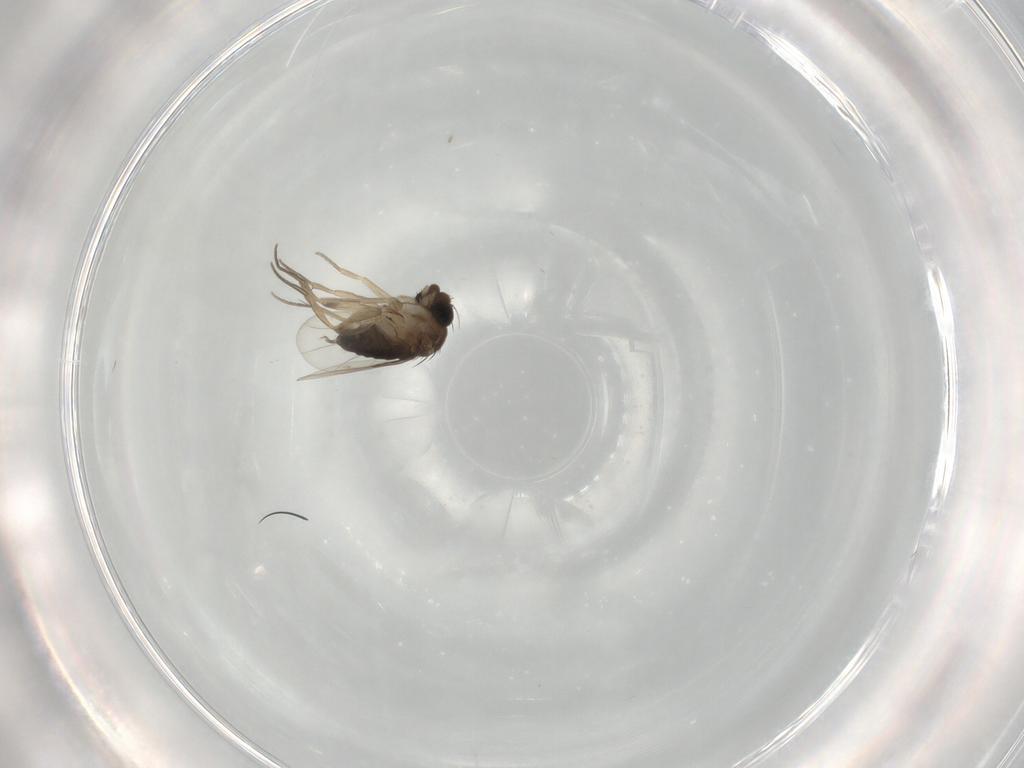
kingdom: Animalia
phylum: Arthropoda
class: Insecta
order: Diptera
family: Phoridae
